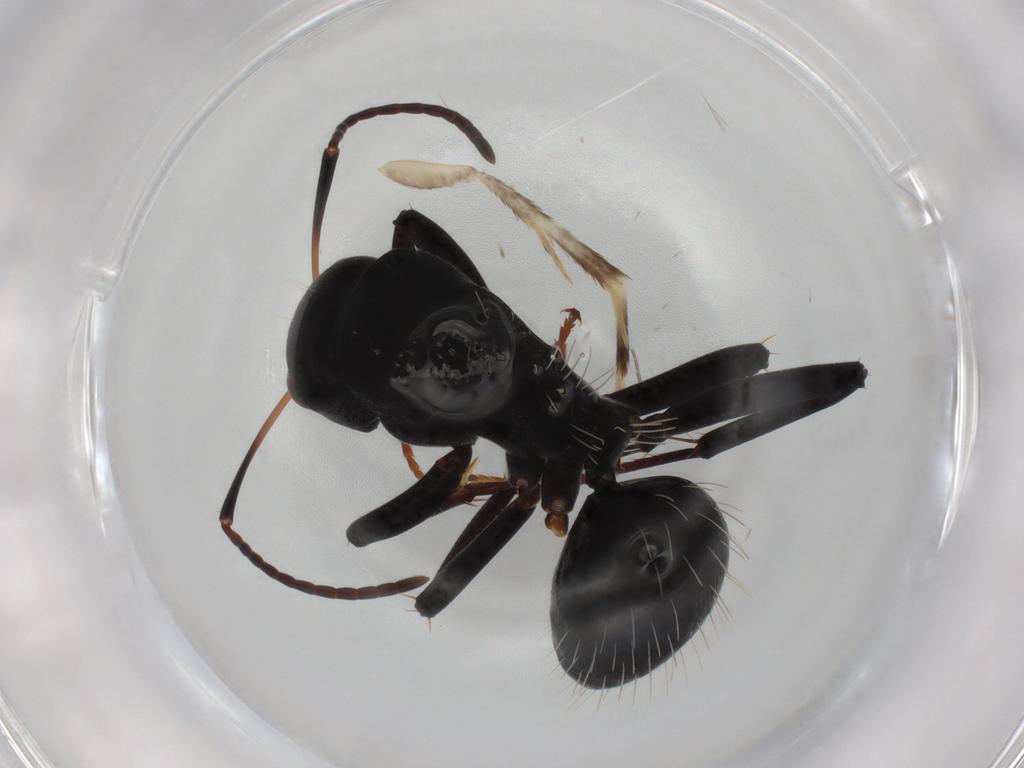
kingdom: Animalia
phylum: Arthropoda
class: Insecta
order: Hymenoptera
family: Formicidae
